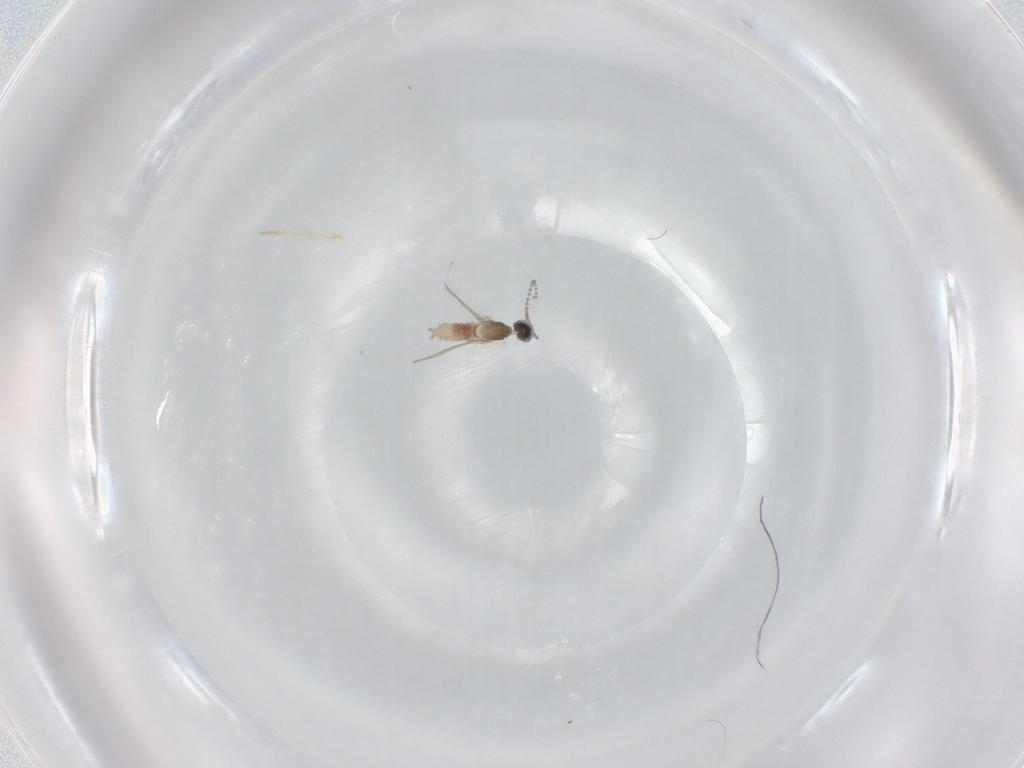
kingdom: Animalia
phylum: Arthropoda
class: Insecta
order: Diptera
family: Cecidomyiidae
